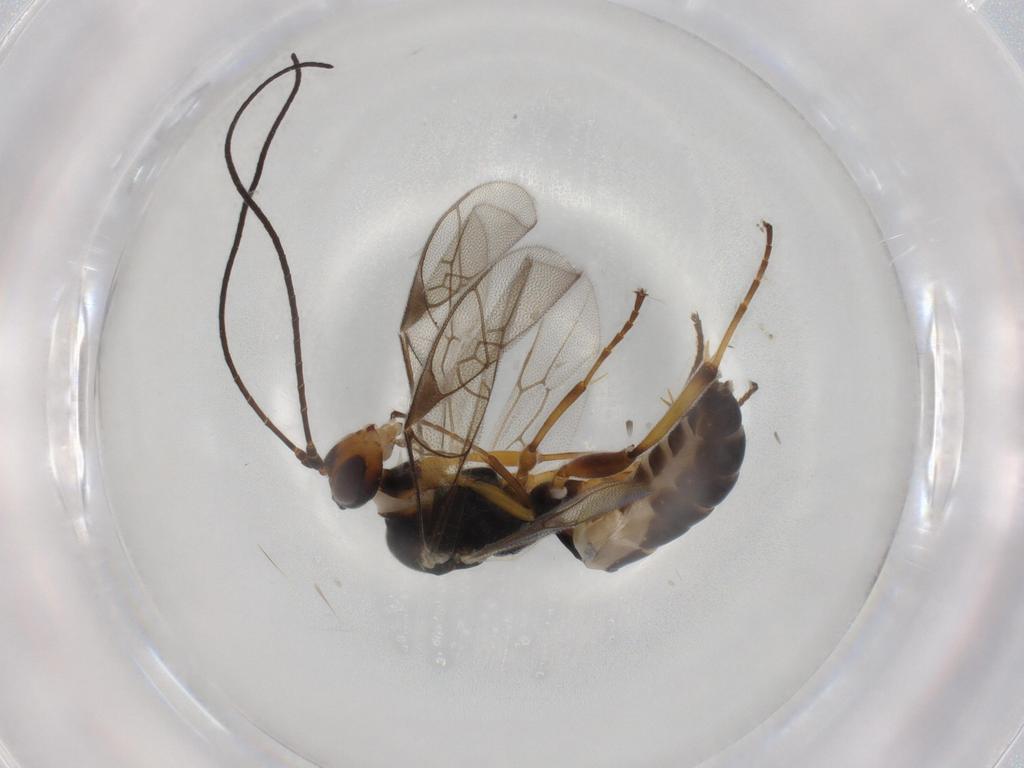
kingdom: Animalia
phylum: Arthropoda
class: Insecta
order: Hymenoptera
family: Ichneumonidae
